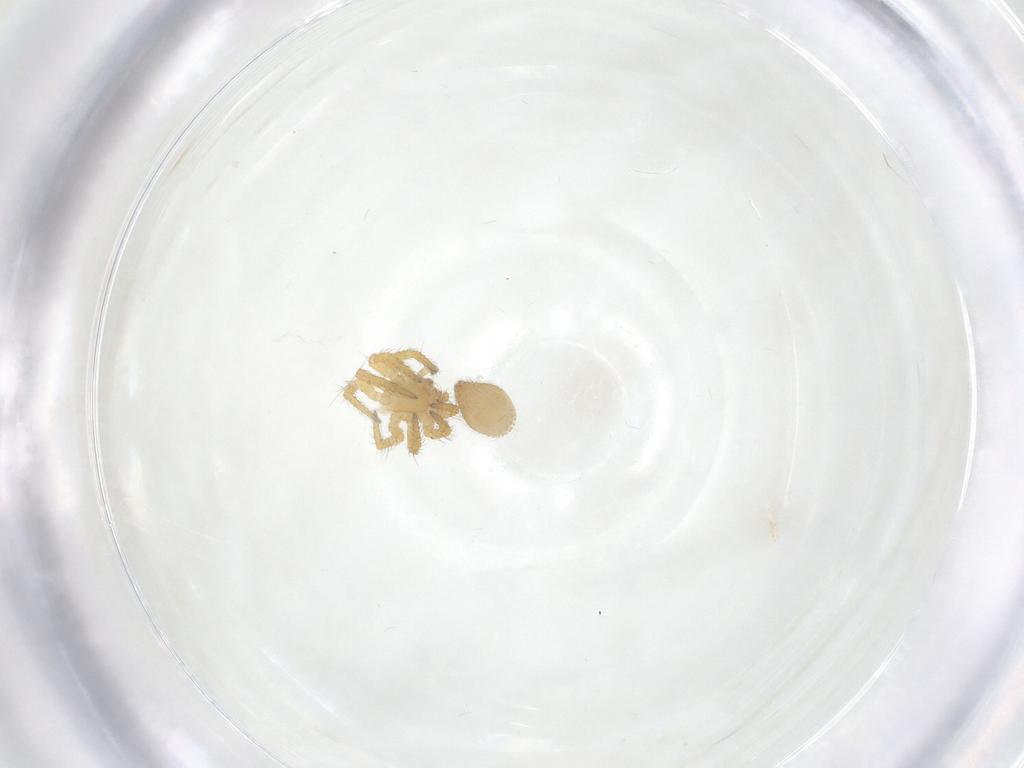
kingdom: Animalia
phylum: Arthropoda
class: Arachnida
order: Araneae
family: Theridiidae
